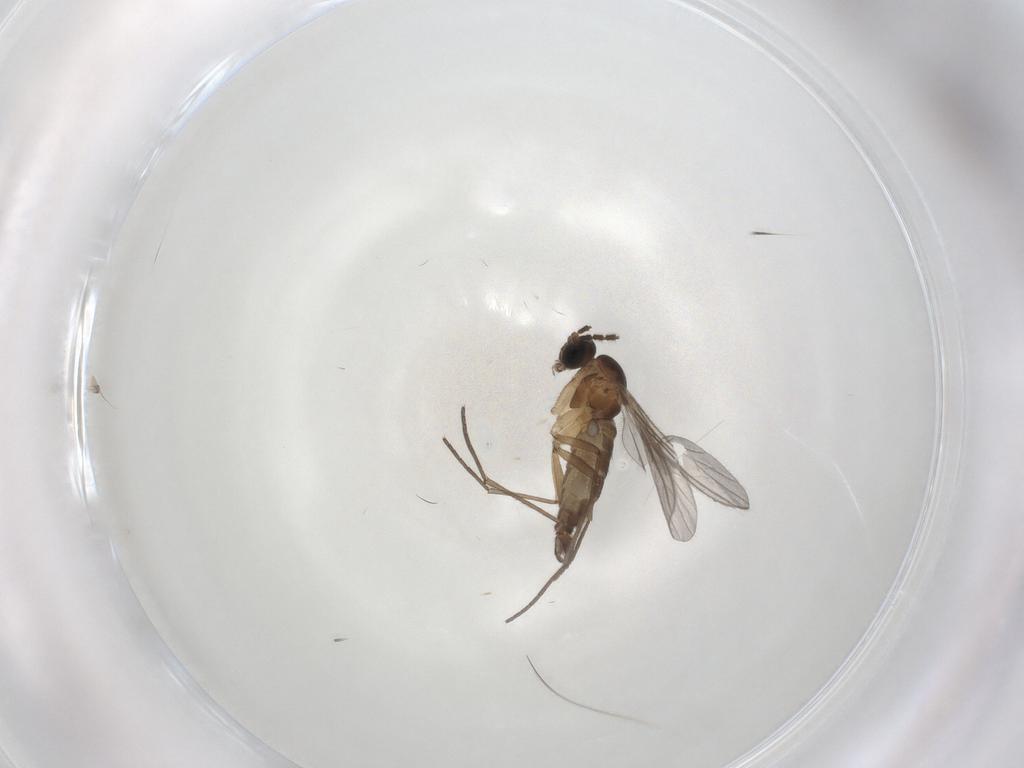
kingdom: Animalia
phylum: Arthropoda
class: Insecta
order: Diptera
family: Sciaridae
